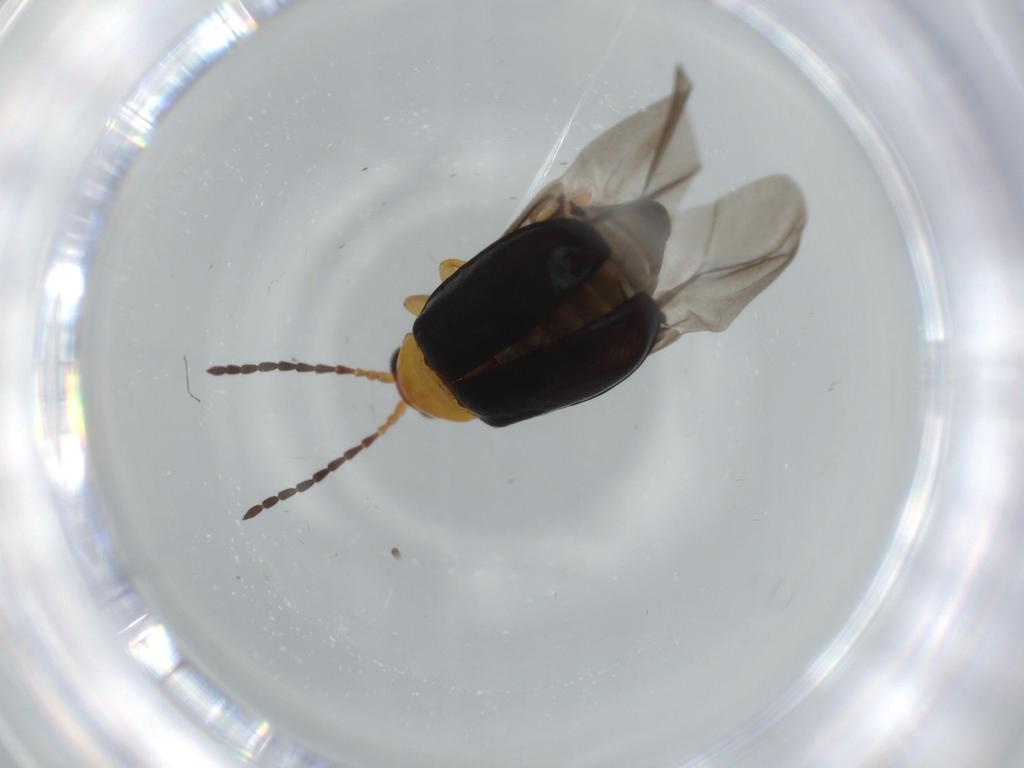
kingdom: Animalia
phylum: Arthropoda
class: Insecta
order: Coleoptera
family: Chrysomelidae
